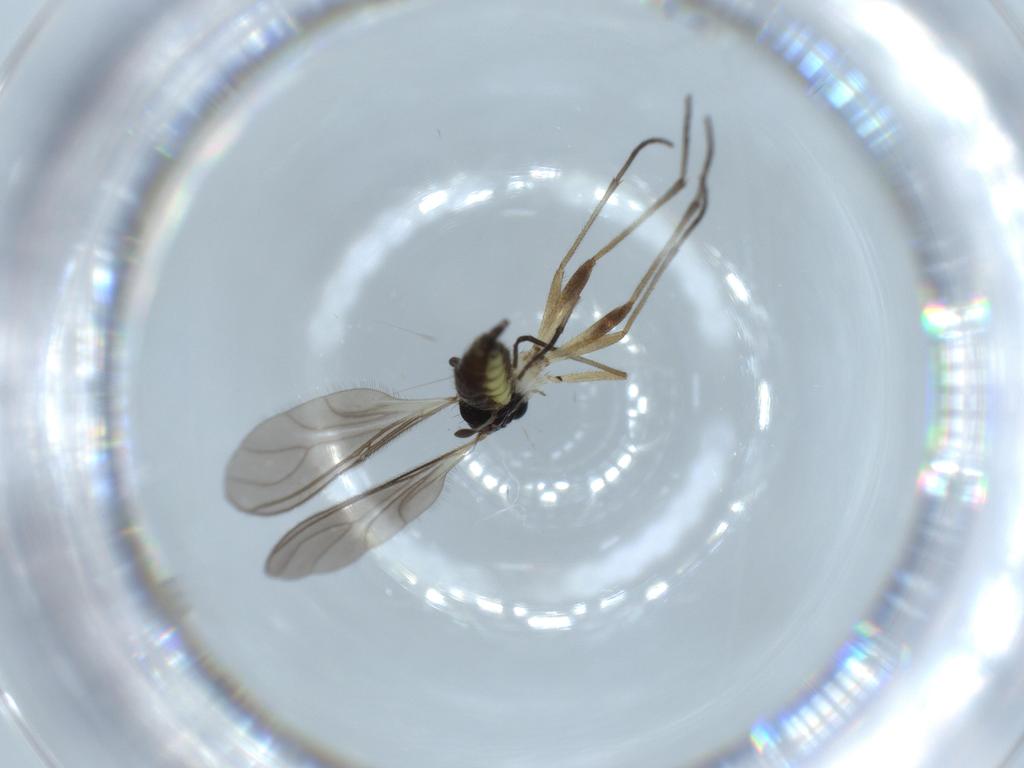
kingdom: Animalia
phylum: Arthropoda
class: Insecta
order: Diptera
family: Sciaridae
